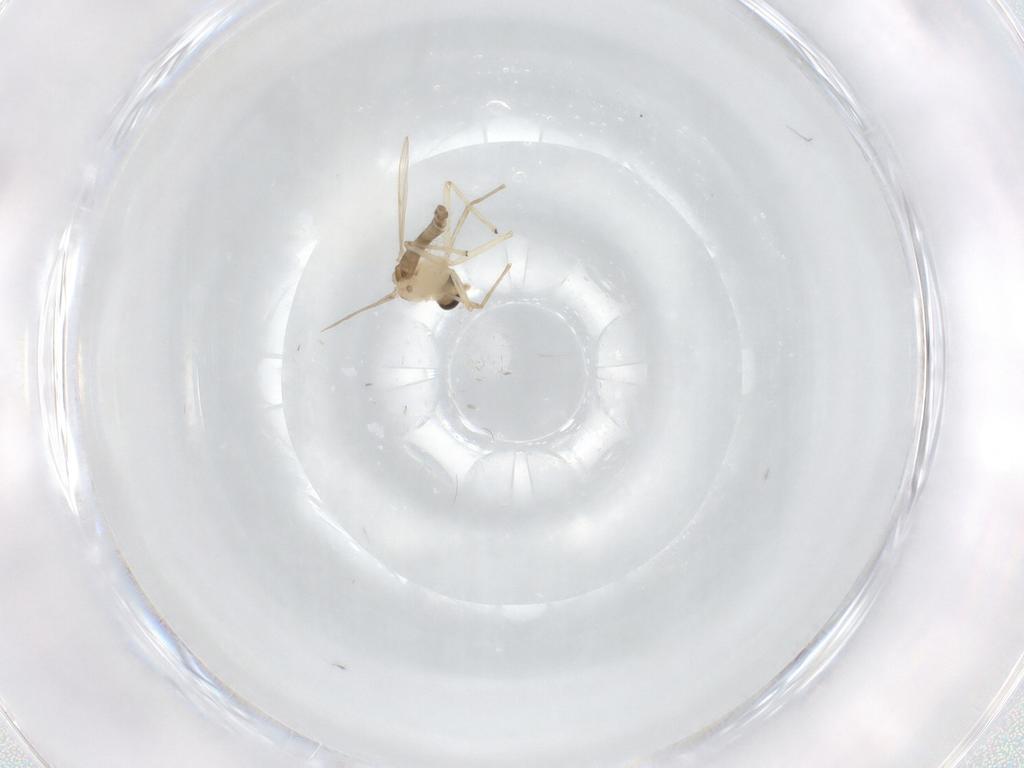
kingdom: Animalia
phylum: Arthropoda
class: Insecta
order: Diptera
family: Chironomidae
